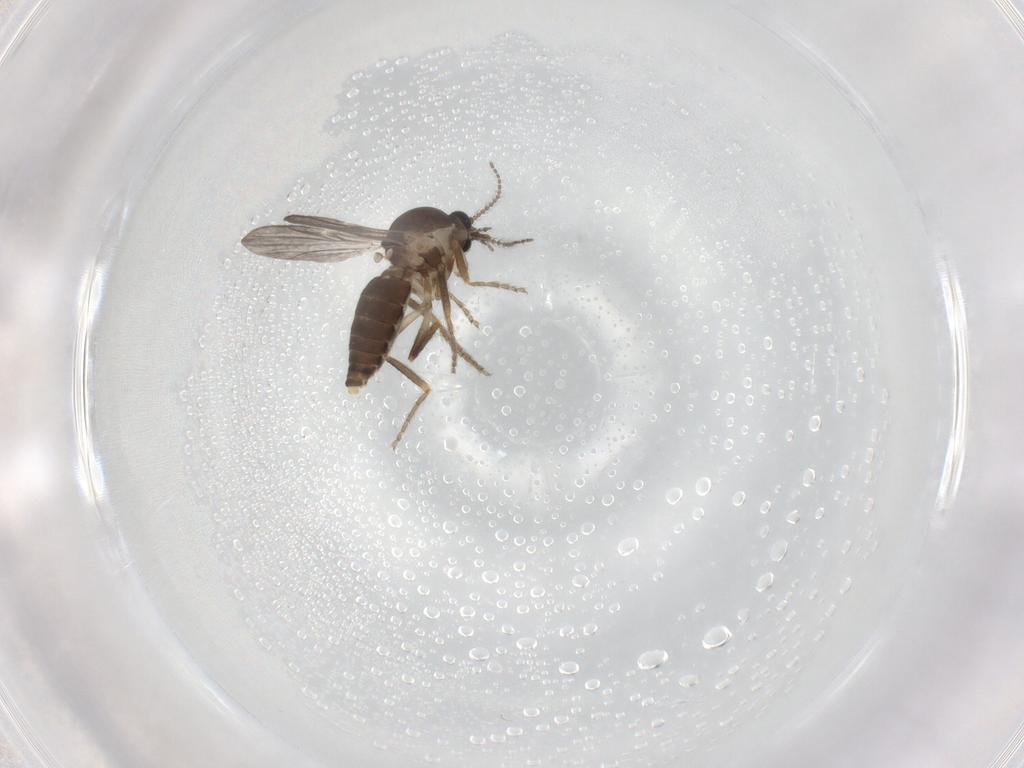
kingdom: Animalia
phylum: Arthropoda
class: Insecta
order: Diptera
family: Ceratopogonidae
